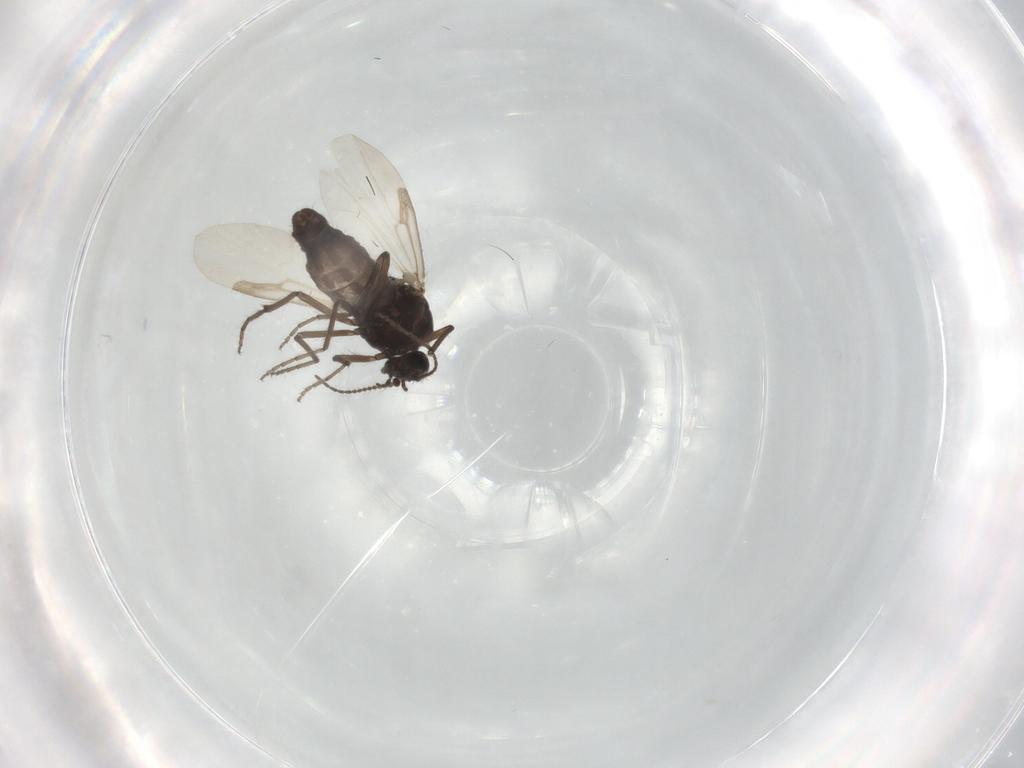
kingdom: Animalia
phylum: Arthropoda
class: Insecta
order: Diptera
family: Ceratopogonidae
